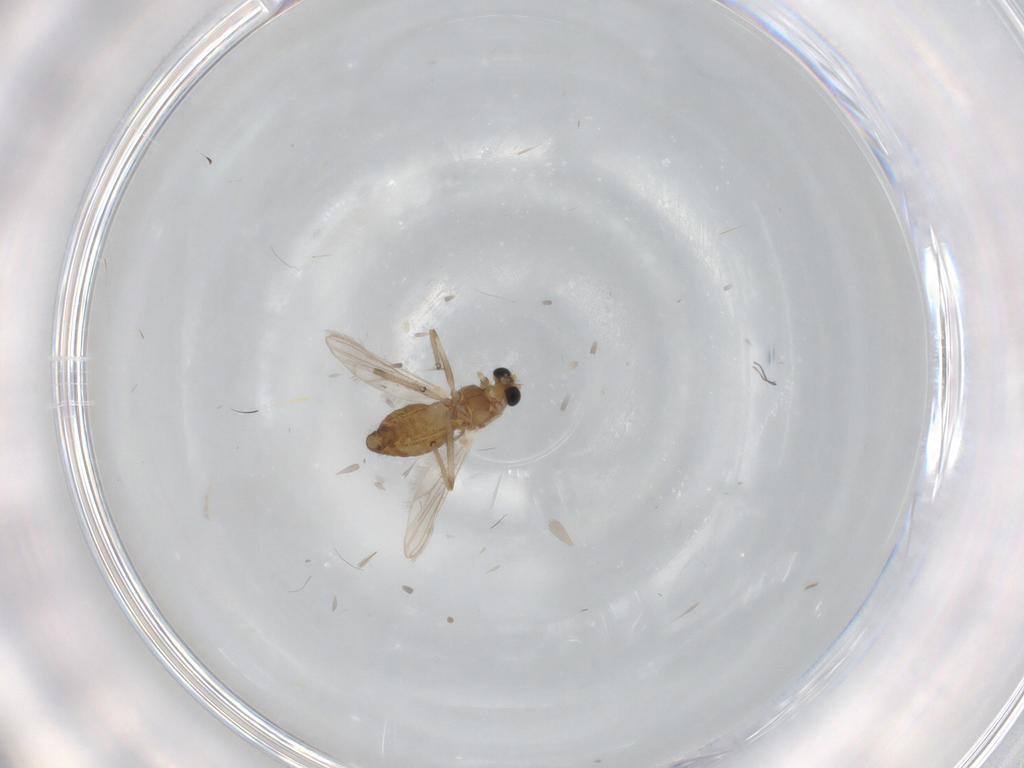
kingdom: Animalia
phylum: Arthropoda
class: Insecta
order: Diptera
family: Chironomidae
